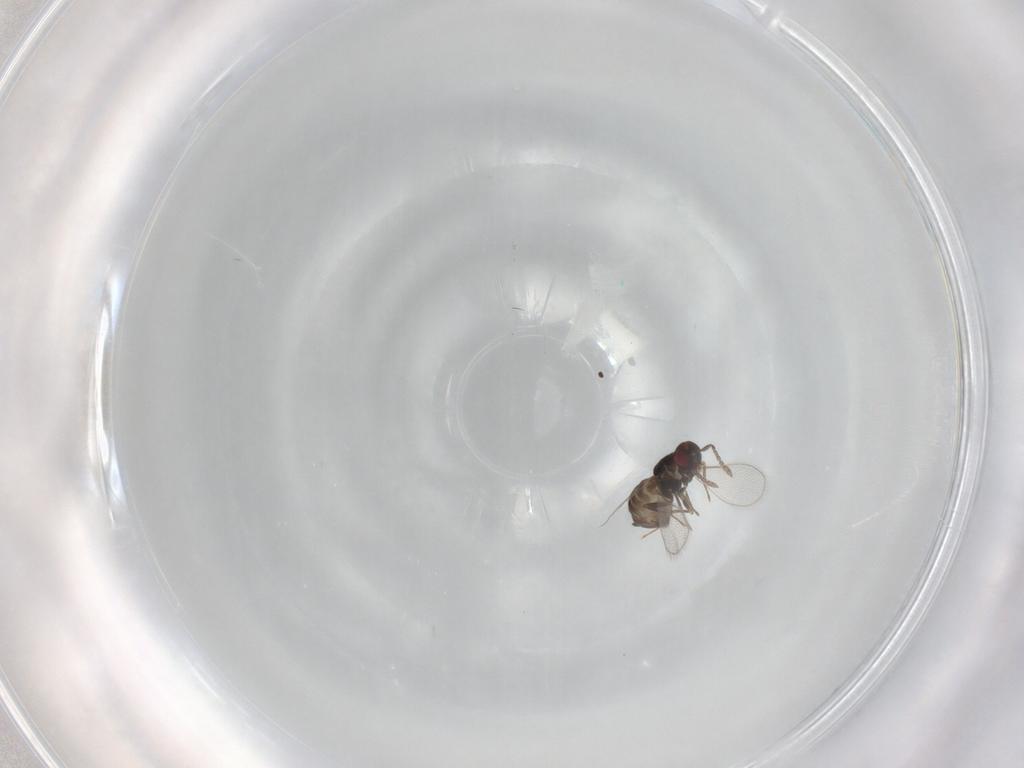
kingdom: Animalia
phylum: Arthropoda
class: Insecta
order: Hymenoptera
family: Eulophidae
